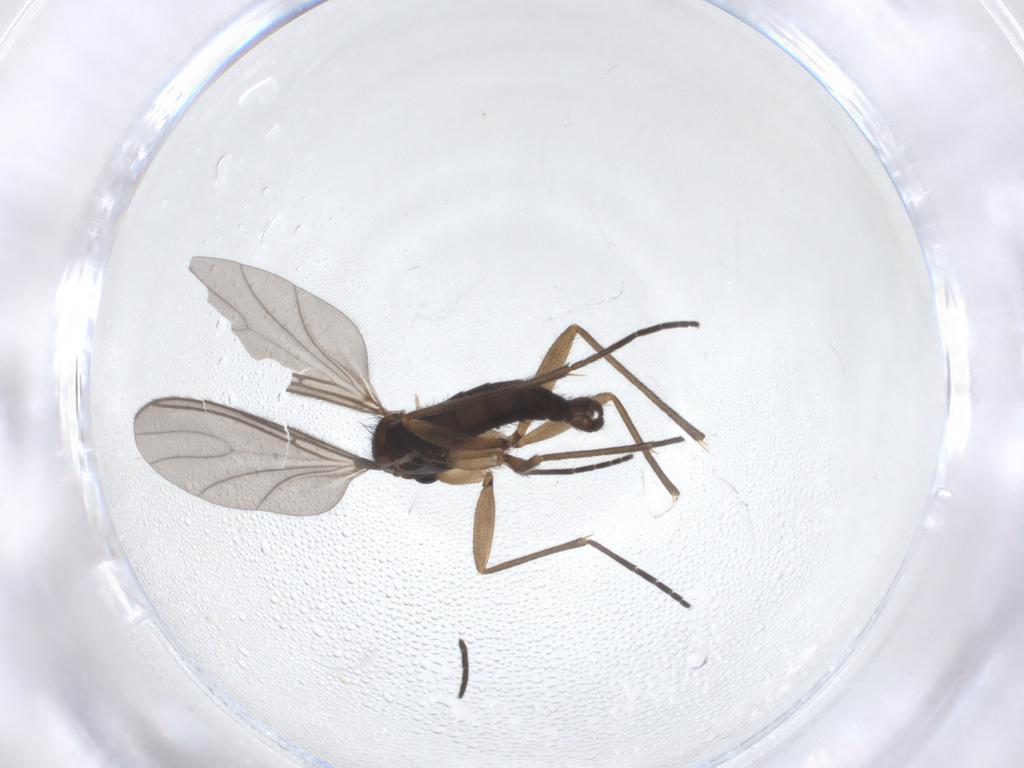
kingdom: Animalia
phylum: Arthropoda
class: Insecta
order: Diptera
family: Sciaridae
